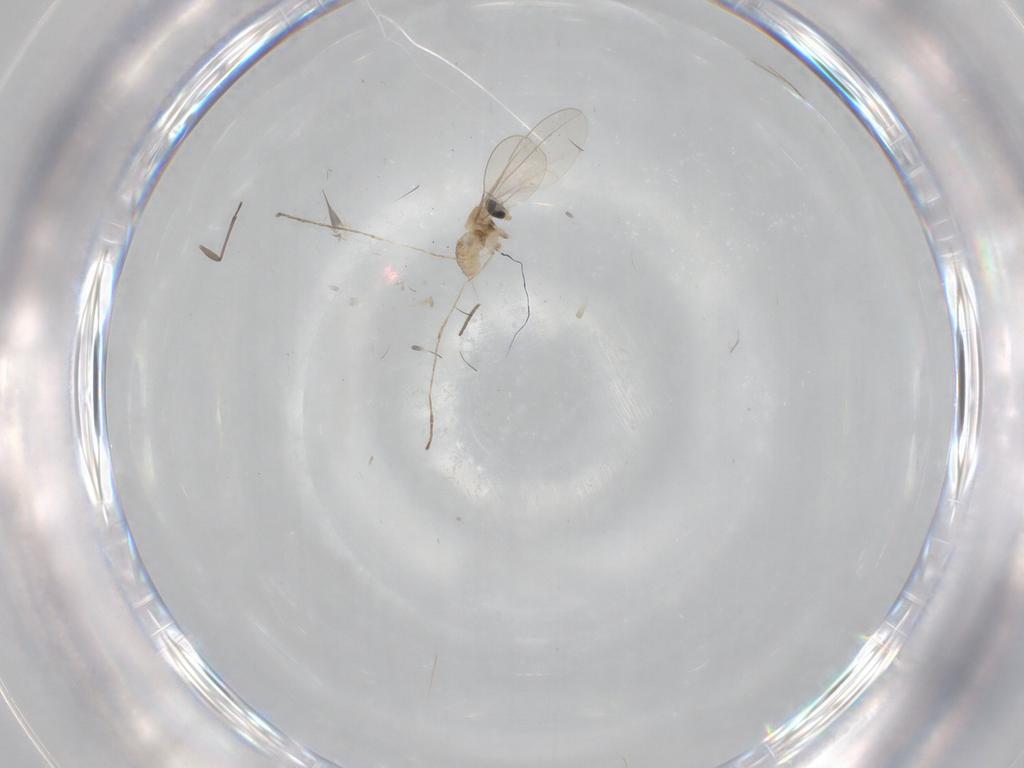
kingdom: Animalia
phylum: Arthropoda
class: Insecta
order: Diptera
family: Cecidomyiidae
